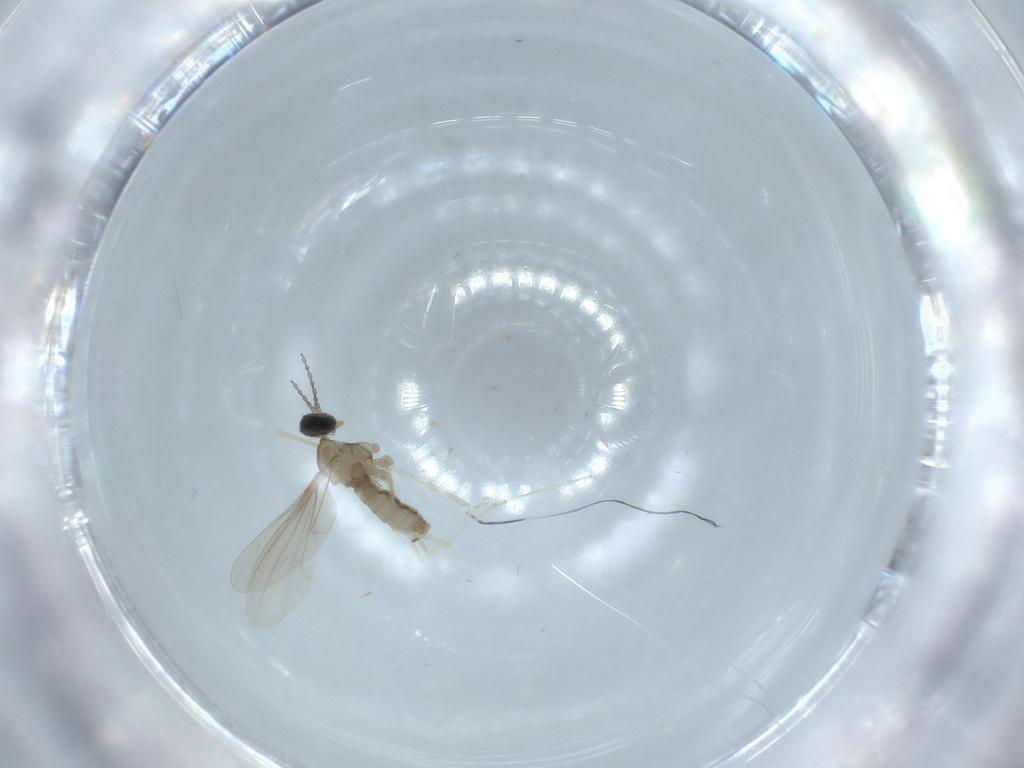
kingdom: Animalia
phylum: Arthropoda
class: Insecta
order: Diptera
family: Cecidomyiidae
